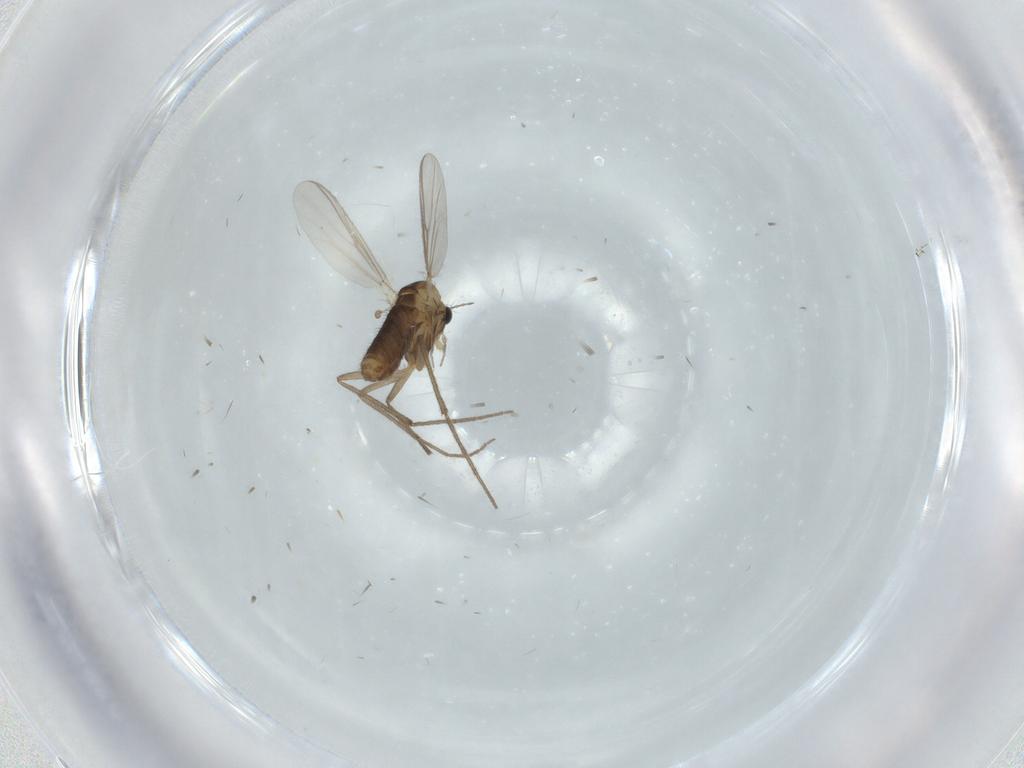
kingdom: Animalia
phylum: Arthropoda
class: Insecta
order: Diptera
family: Chironomidae
